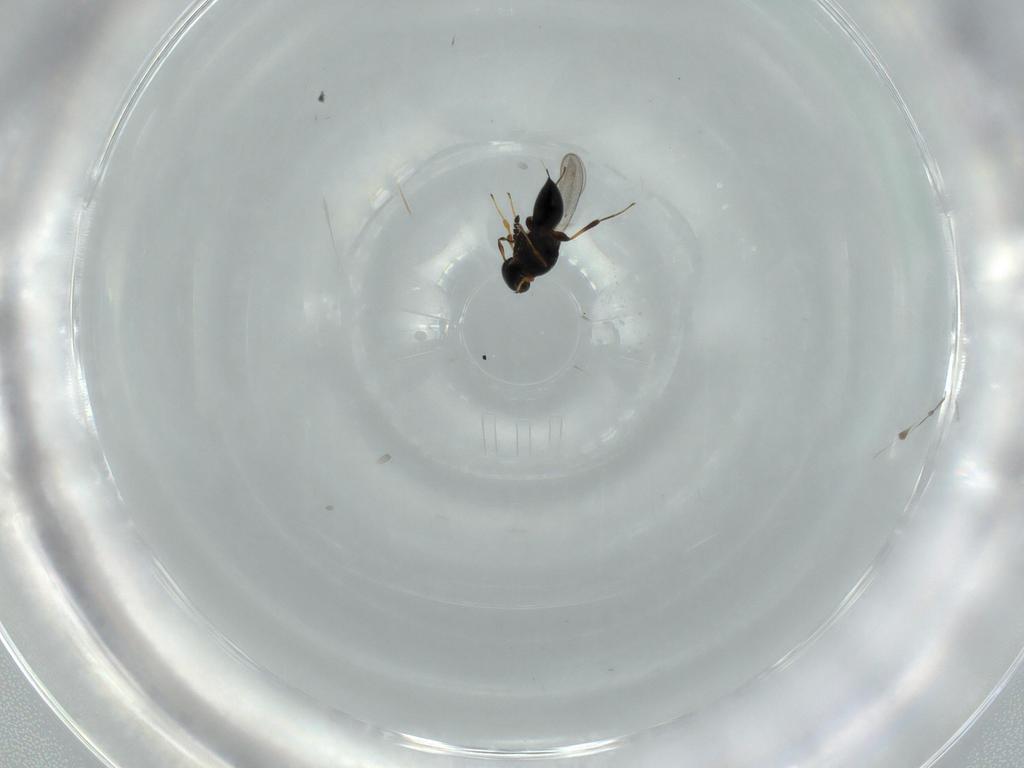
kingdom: Animalia
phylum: Arthropoda
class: Insecta
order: Hymenoptera
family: Platygastridae
